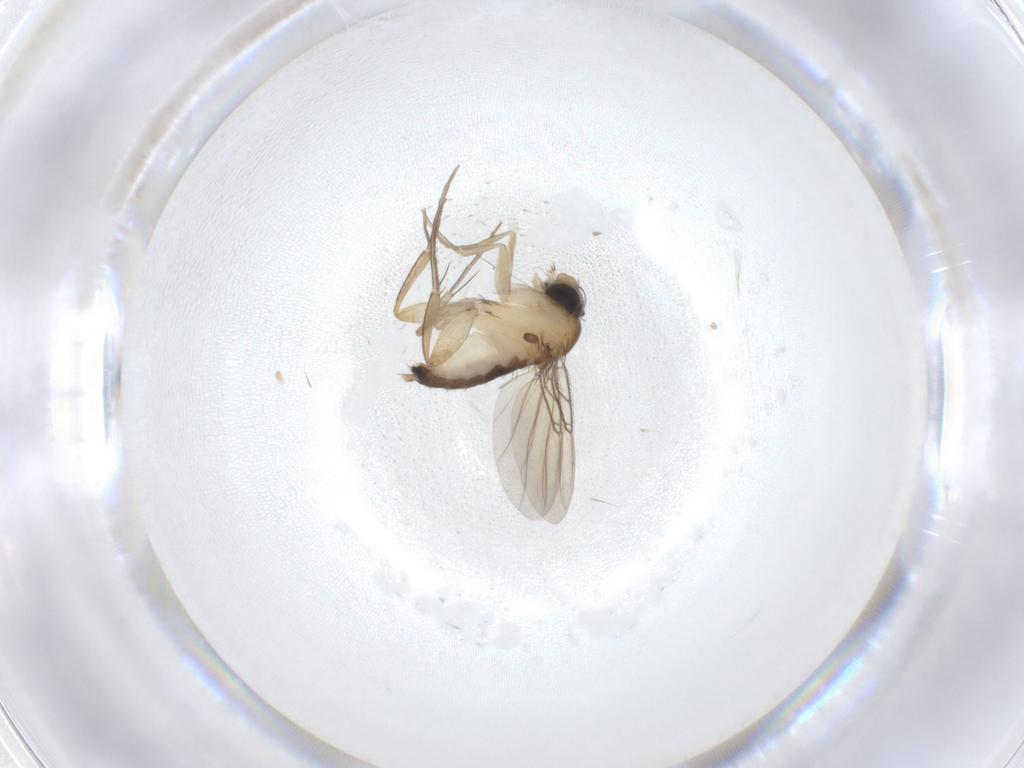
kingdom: Animalia
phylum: Arthropoda
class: Insecta
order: Diptera
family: Phoridae
